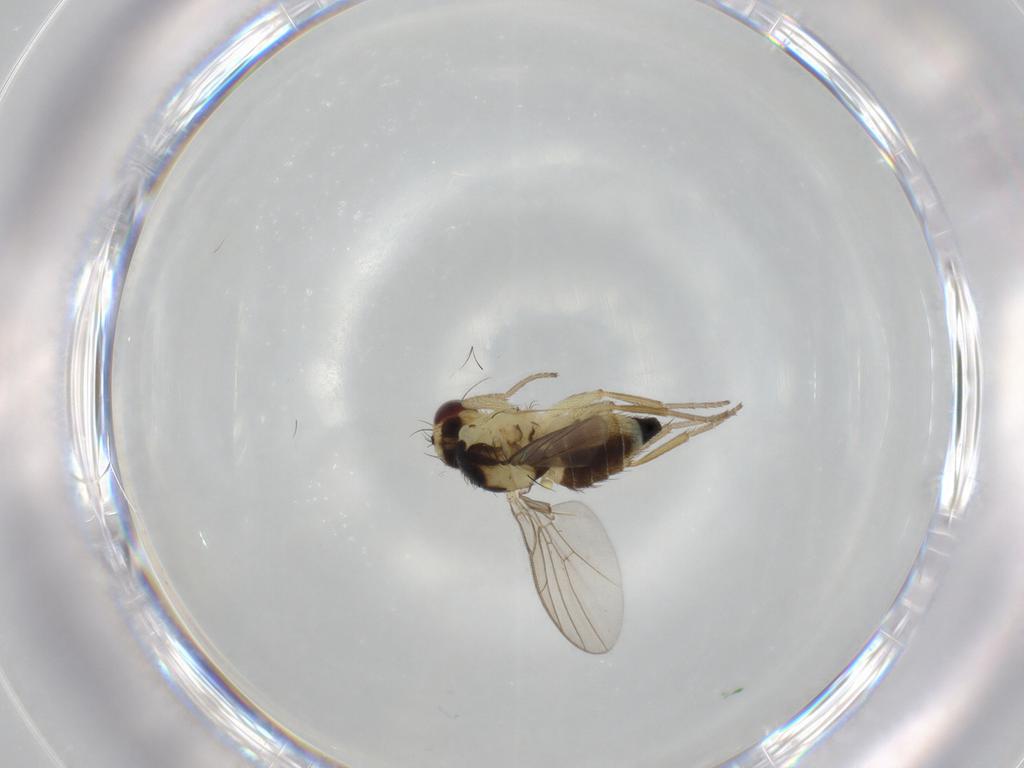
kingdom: Animalia
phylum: Arthropoda
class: Insecta
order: Diptera
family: Agromyzidae
